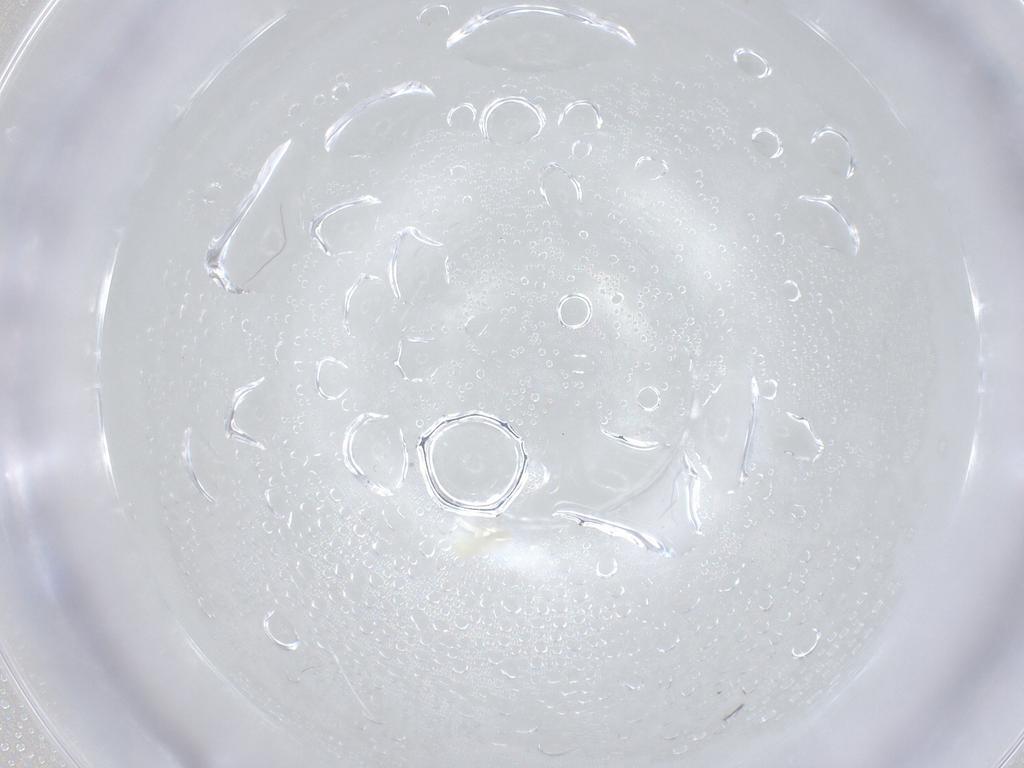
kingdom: Animalia
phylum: Arthropoda
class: Arachnida
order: Trombidiformes
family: Eupodidae
